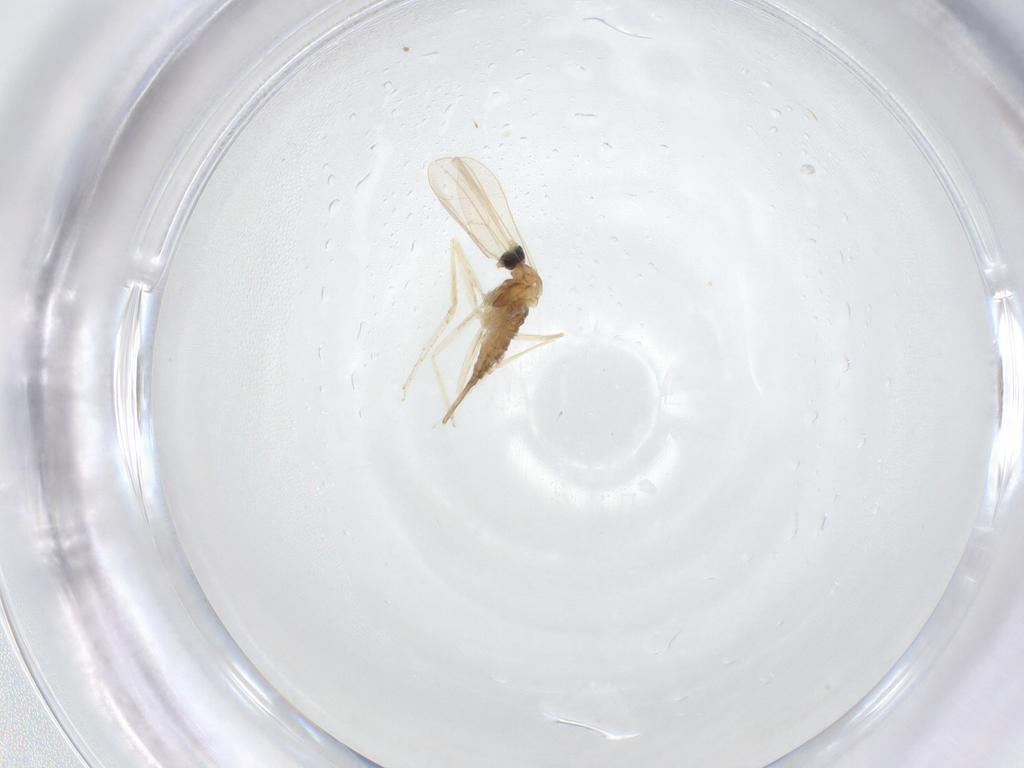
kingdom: Animalia
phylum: Arthropoda
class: Insecta
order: Diptera
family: Cecidomyiidae
